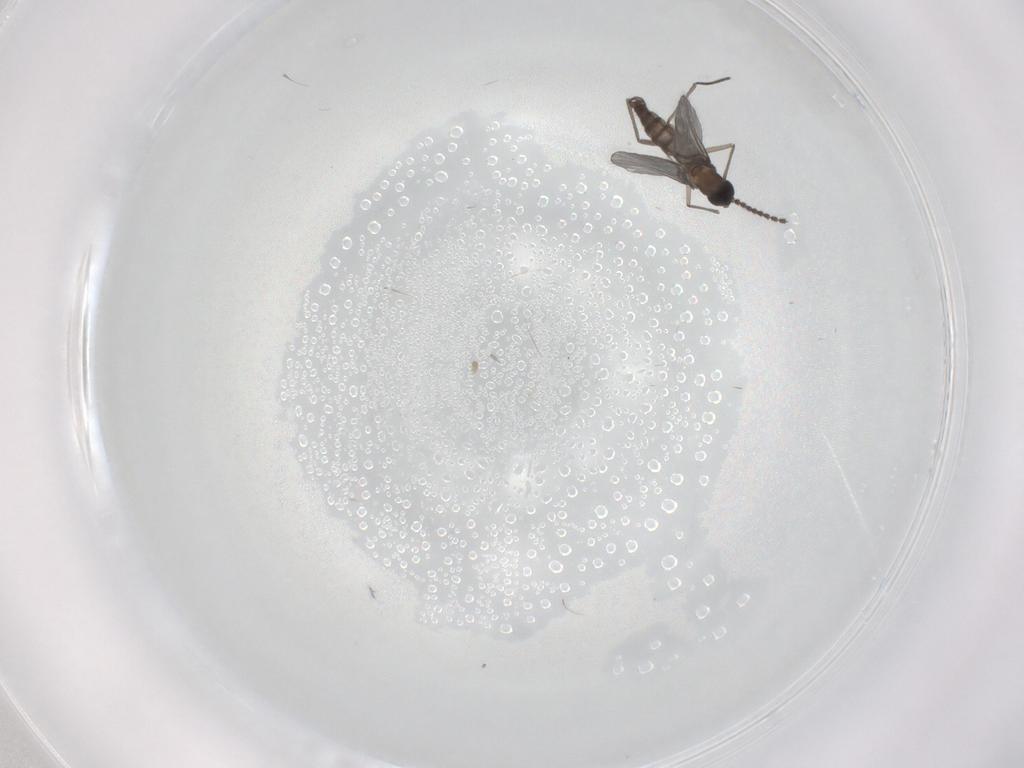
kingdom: Animalia
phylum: Arthropoda
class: Insecta
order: Diptera
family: Sciaridae
